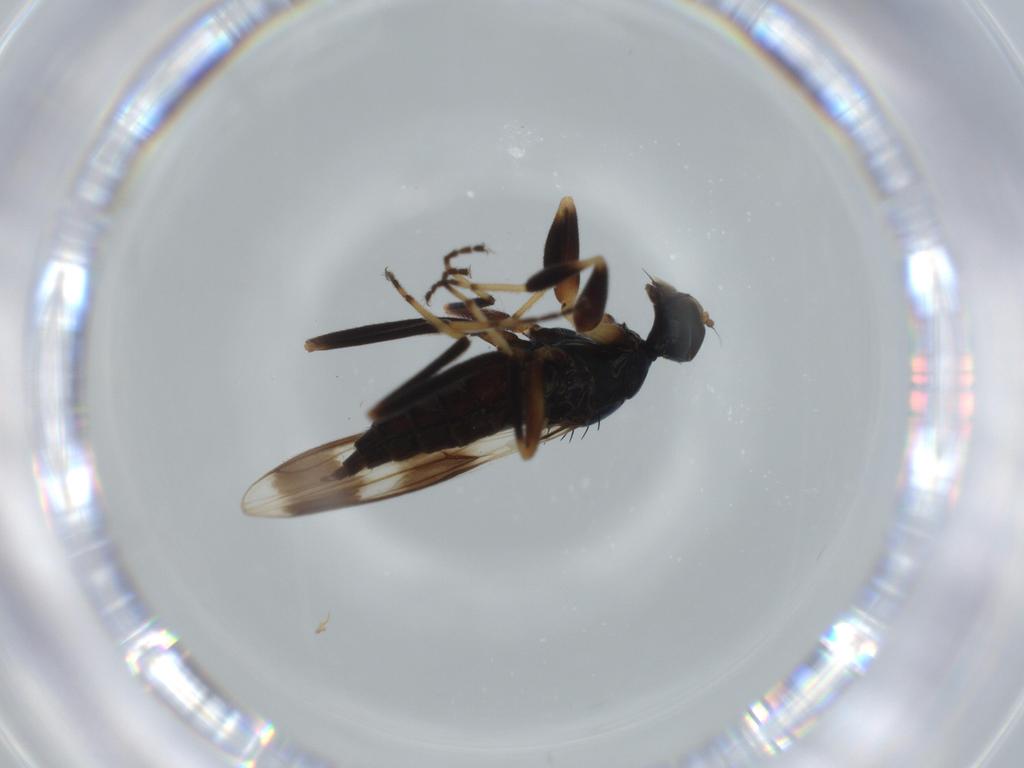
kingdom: Animalia
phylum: Arthropoda
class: Insecta
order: Diptera
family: Hybotidae
